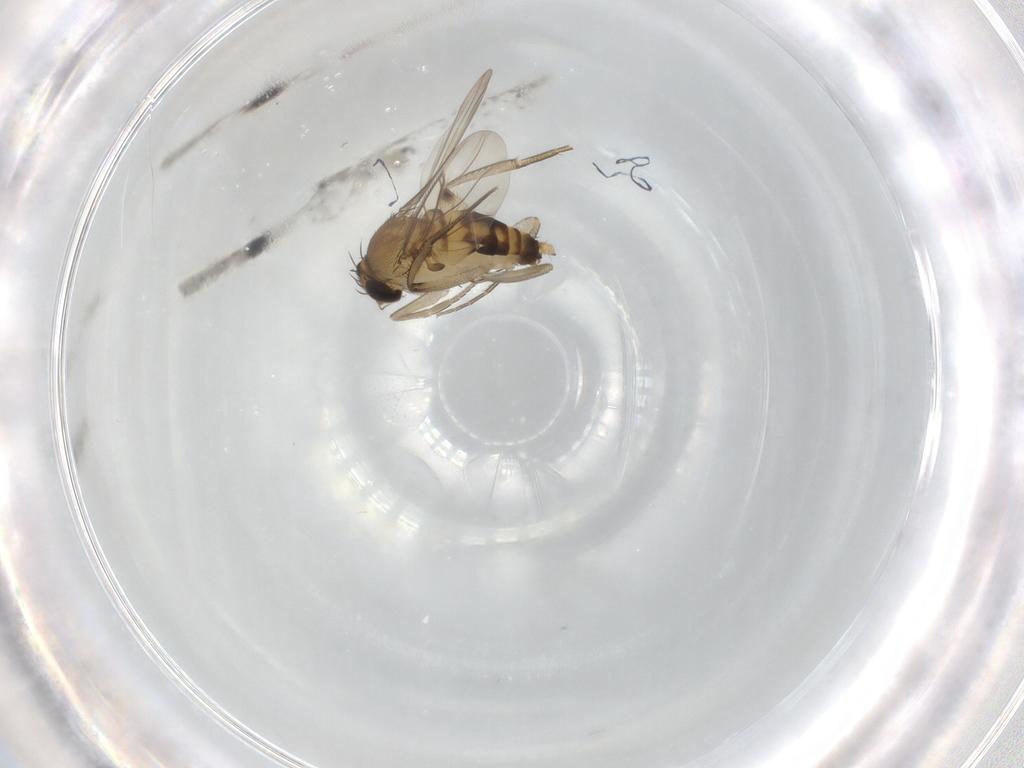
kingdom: Animalia
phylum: Arthropoda
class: Insecta
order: Diptera
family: Phoridae
